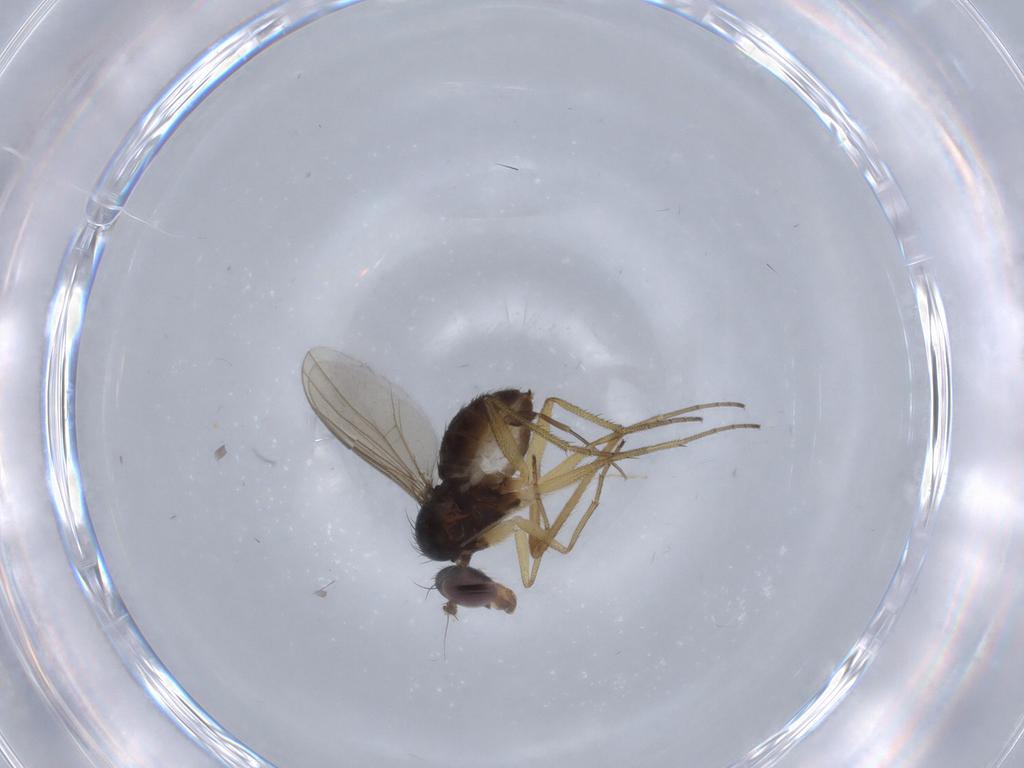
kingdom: Animalia
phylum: Arthropoda
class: Insecta
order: Diptera
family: Dolichopodidae
